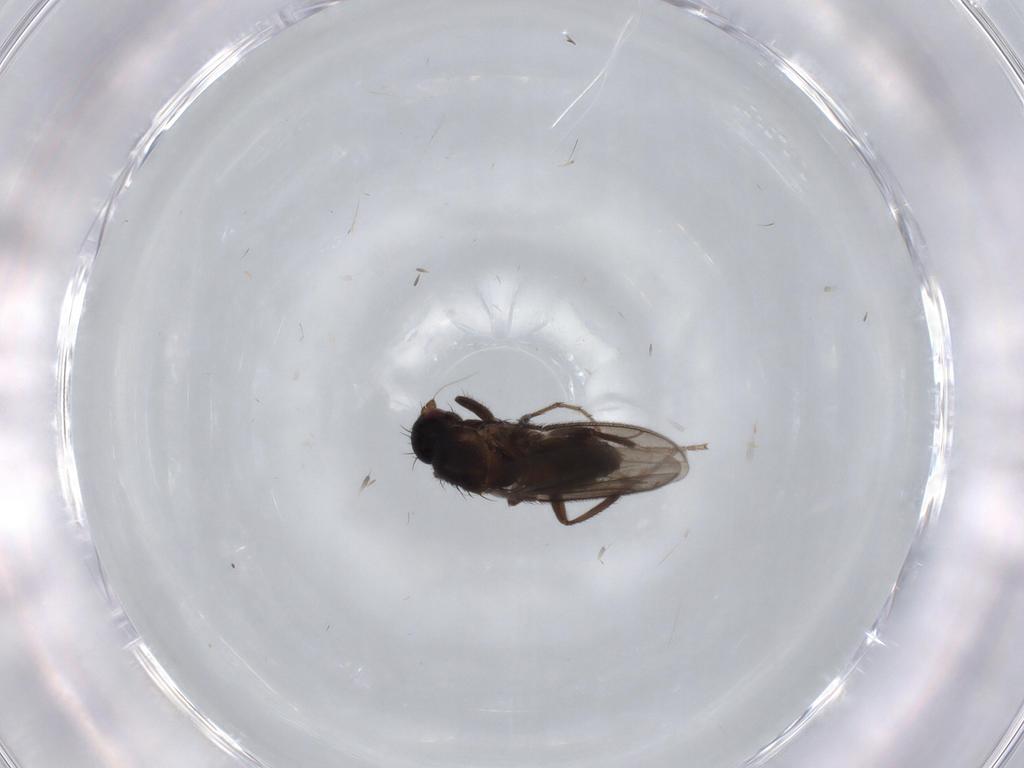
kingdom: Animalia
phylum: Arthropoda
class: Insecta
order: Diptera
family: Sphaeroceridae
